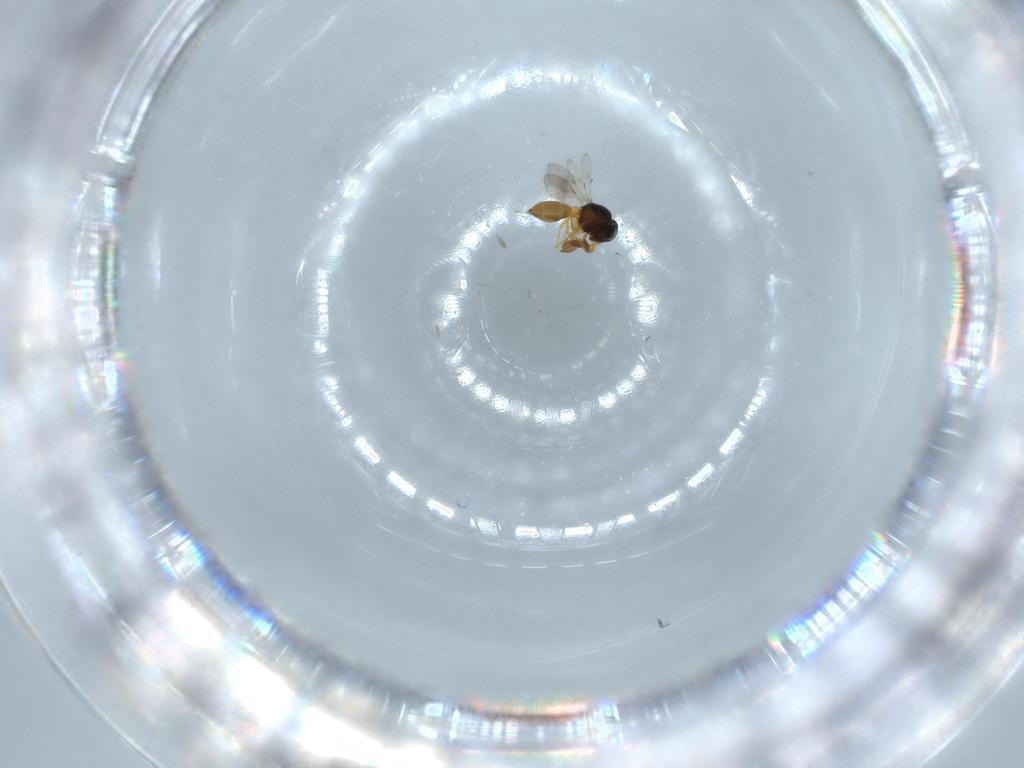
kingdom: Animalia
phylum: Arthropoda
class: Insecta
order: Hymenoptera
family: Scelionidae
